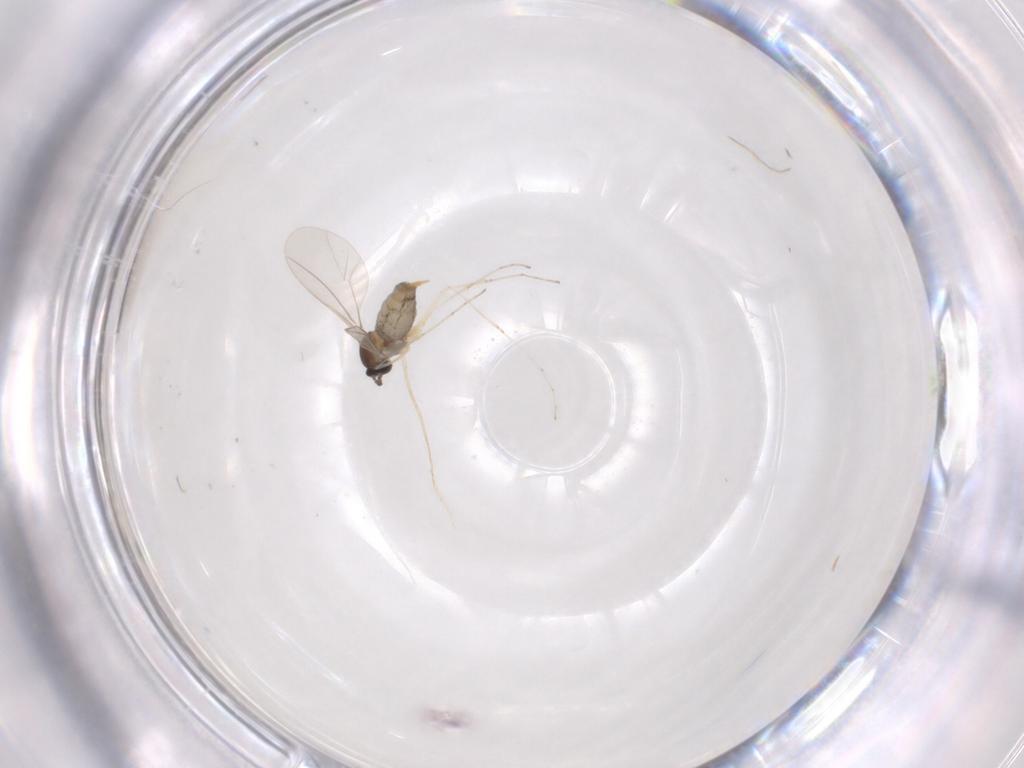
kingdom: Animalia
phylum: Arthropoda
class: Insecta
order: Diptera
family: Cecidomyiidae
